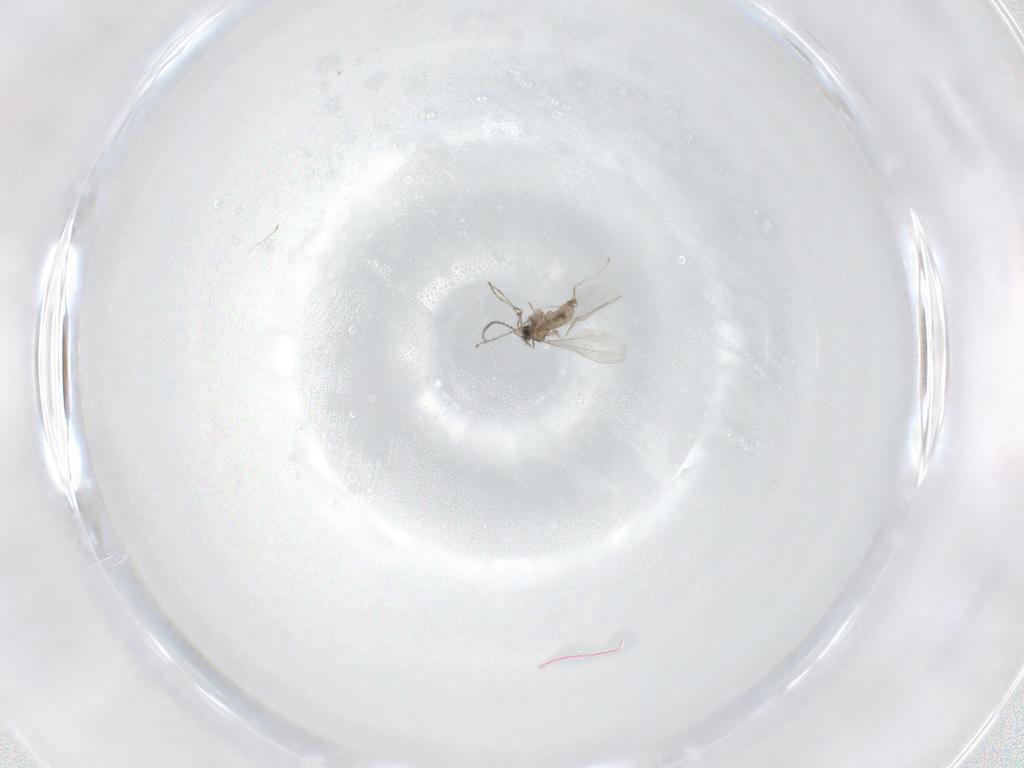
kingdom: Animalia
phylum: Arthropoda
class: Insecta
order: Diptera
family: Cecidomyiidae
